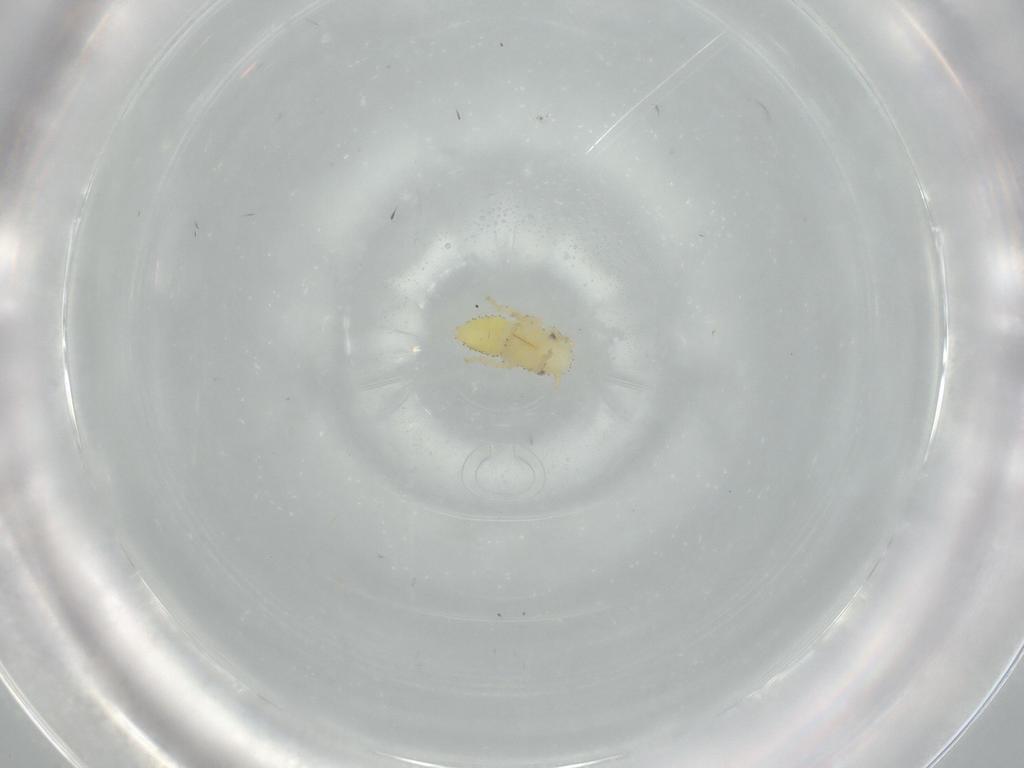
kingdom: Animalia
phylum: Arthropoda
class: Insecta
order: Hemiptera
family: Cicadellidae
